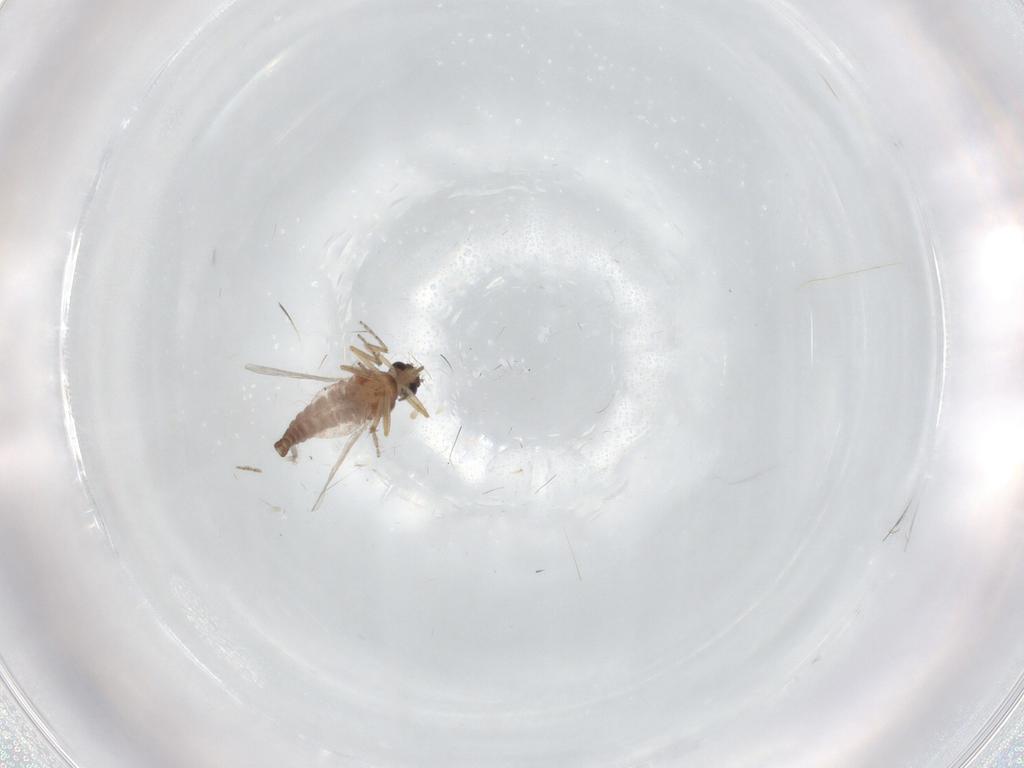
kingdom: Animalia
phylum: Arthropoda
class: Insecta
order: Diptera
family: Ceratopogonidae
